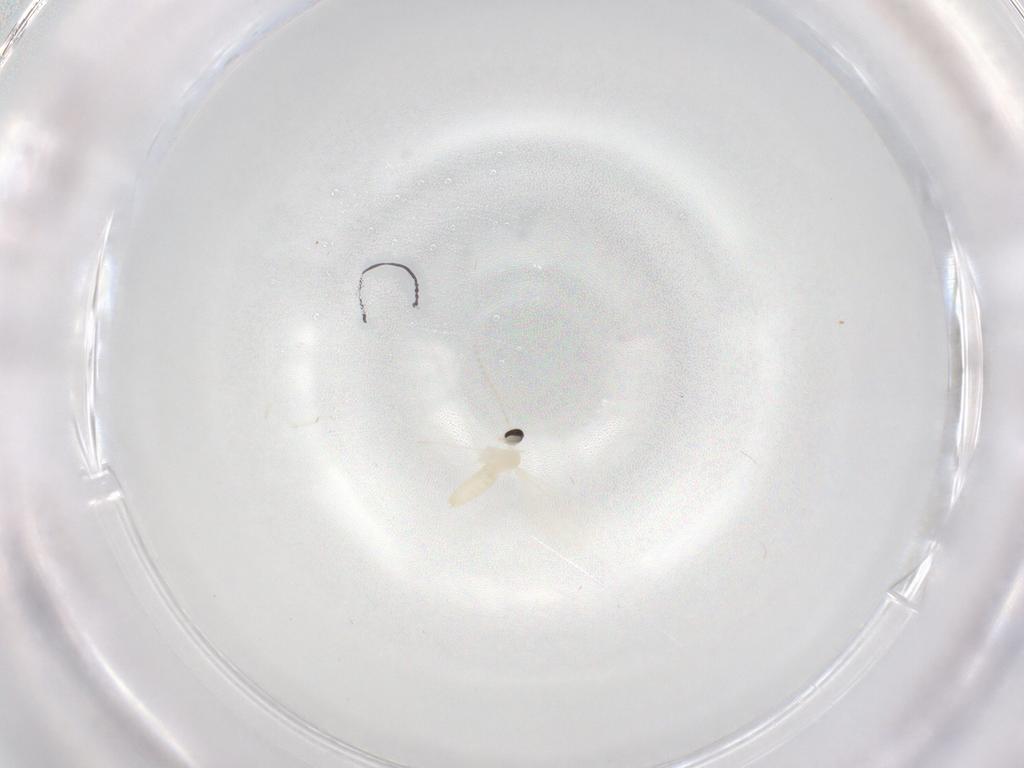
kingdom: Animalia
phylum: Arthropoda
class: Insecta
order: Diptera
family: Cecidomyiidae
